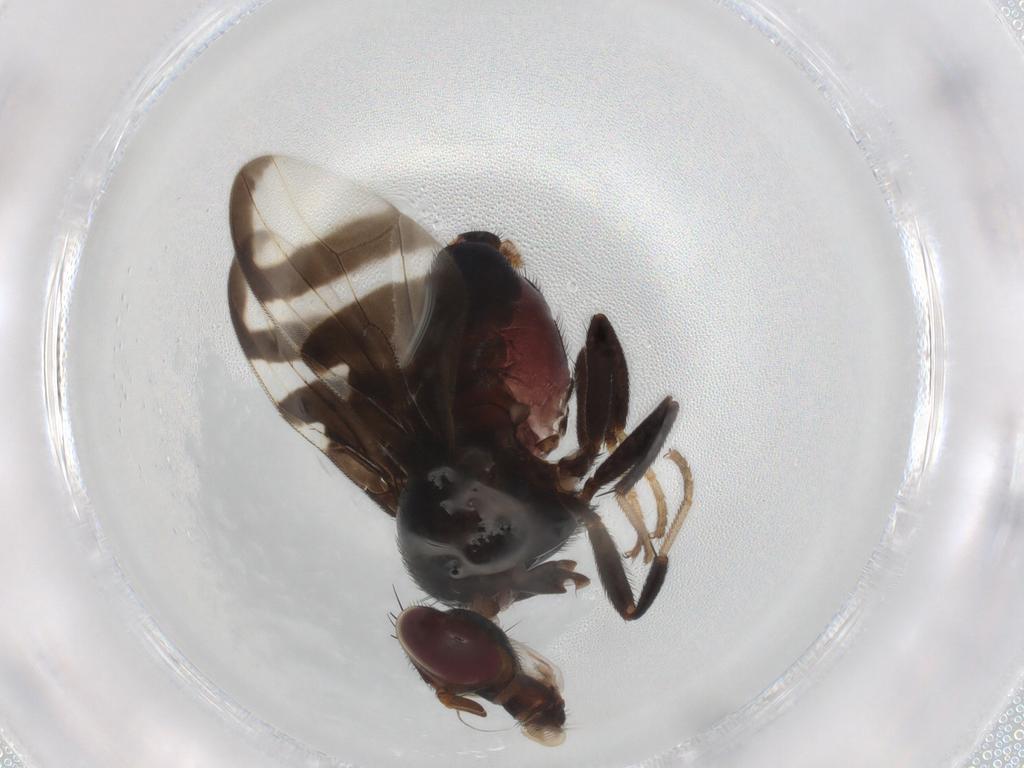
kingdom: Animalia
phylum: Arthropoda
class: Insecta
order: Diptera
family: Platystomatidae
